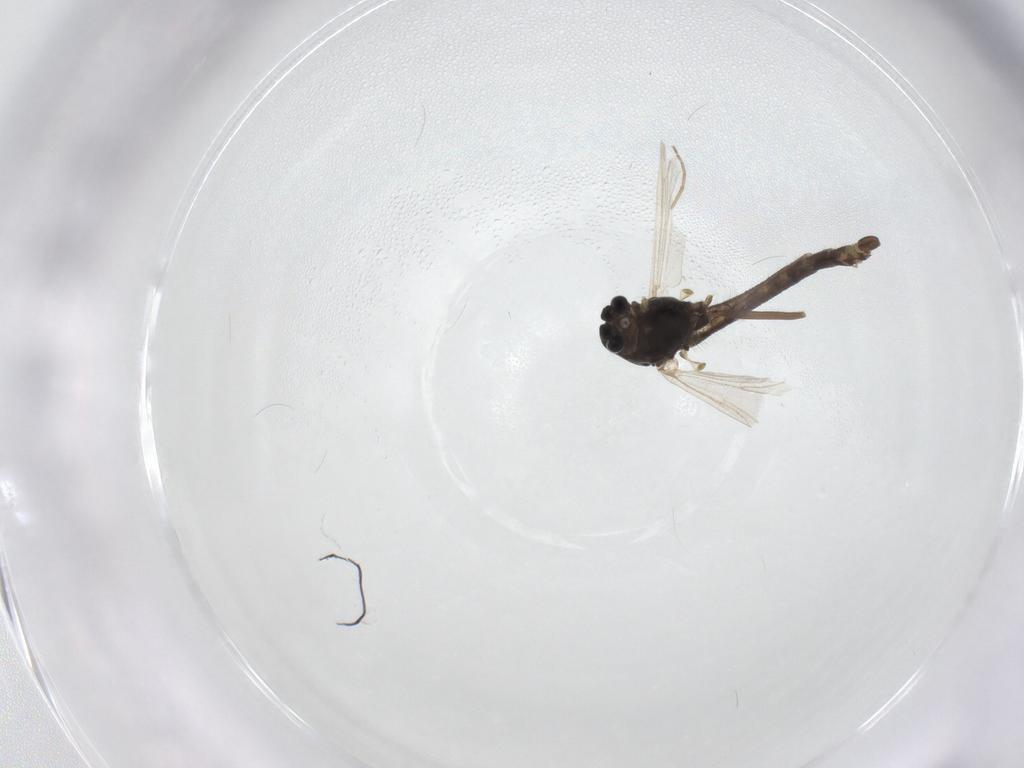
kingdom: Animalia
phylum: Arthropoda
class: Insecta
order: Diptera
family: Chironomidae
